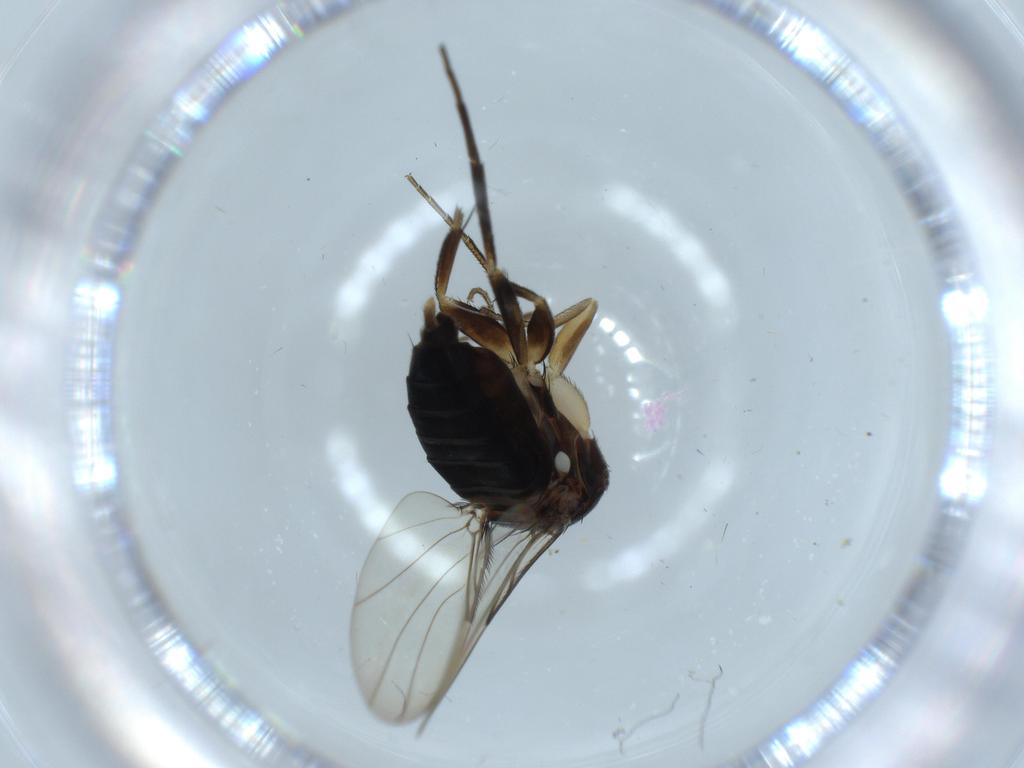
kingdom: Animalia
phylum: Arthropoda
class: Insecta
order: Diptera
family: Phoridae
